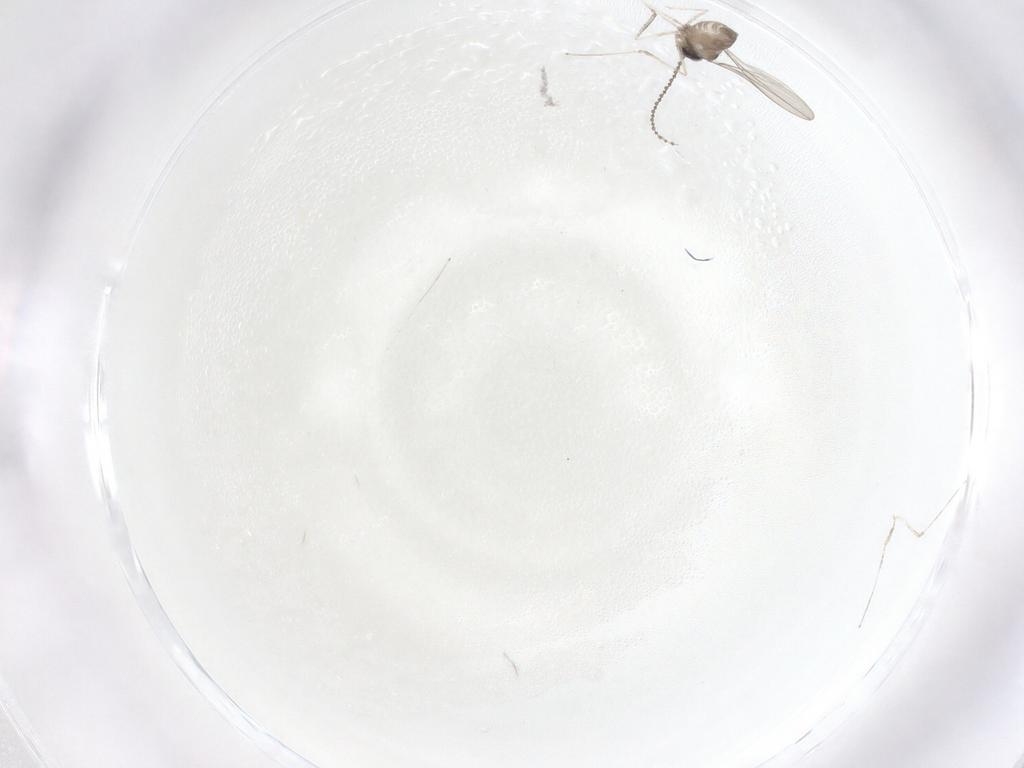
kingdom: Animalia
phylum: Arthropoda
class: Insecta
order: Diptera
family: Cecidomyiidae
